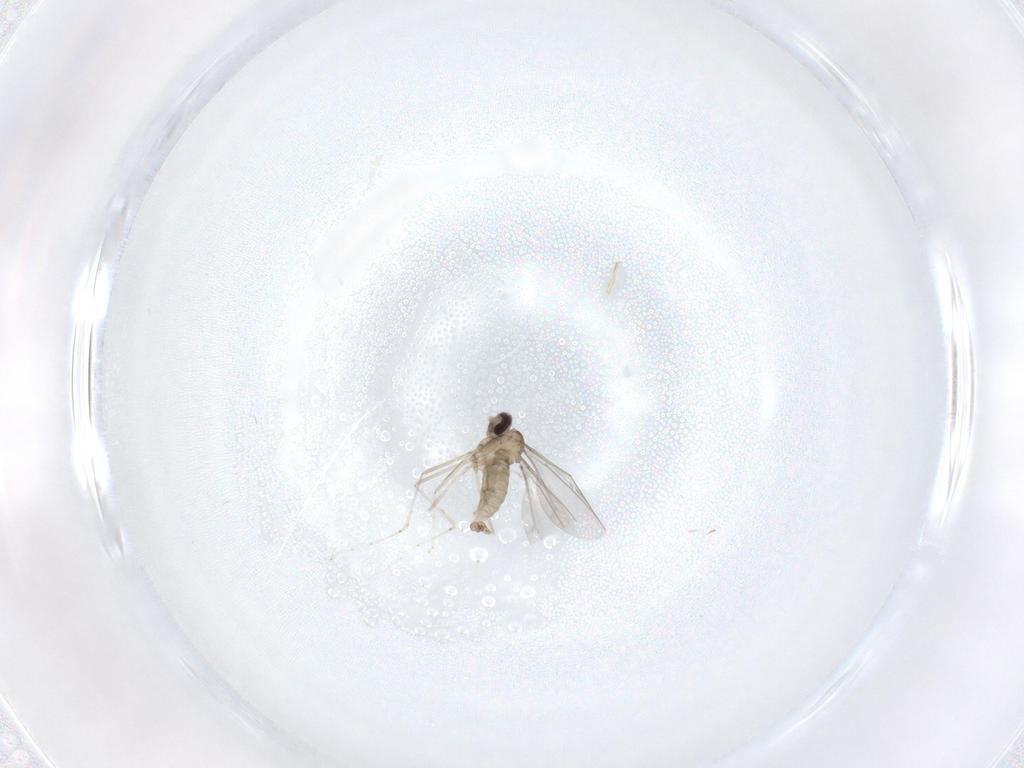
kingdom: Animalia
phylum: Arthropoda
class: Insecta
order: Diptera
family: Cecidomyiidae
